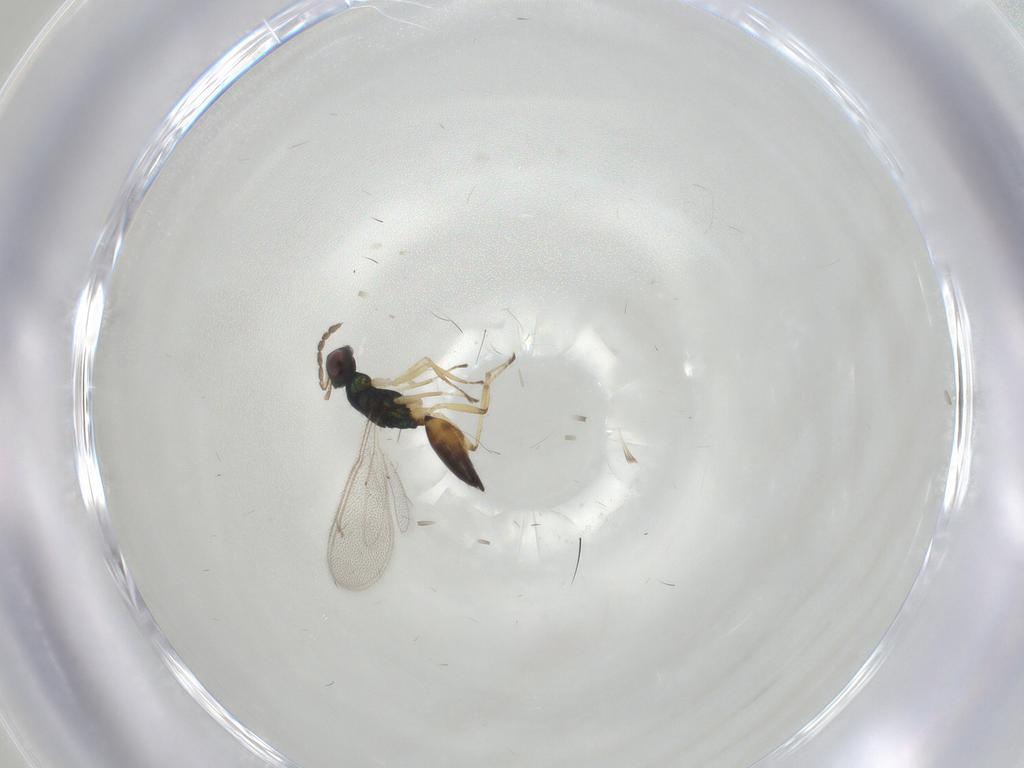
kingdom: Animalia
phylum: Arthropoda
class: Insecta
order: Hymenoptera
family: Eulophidae
